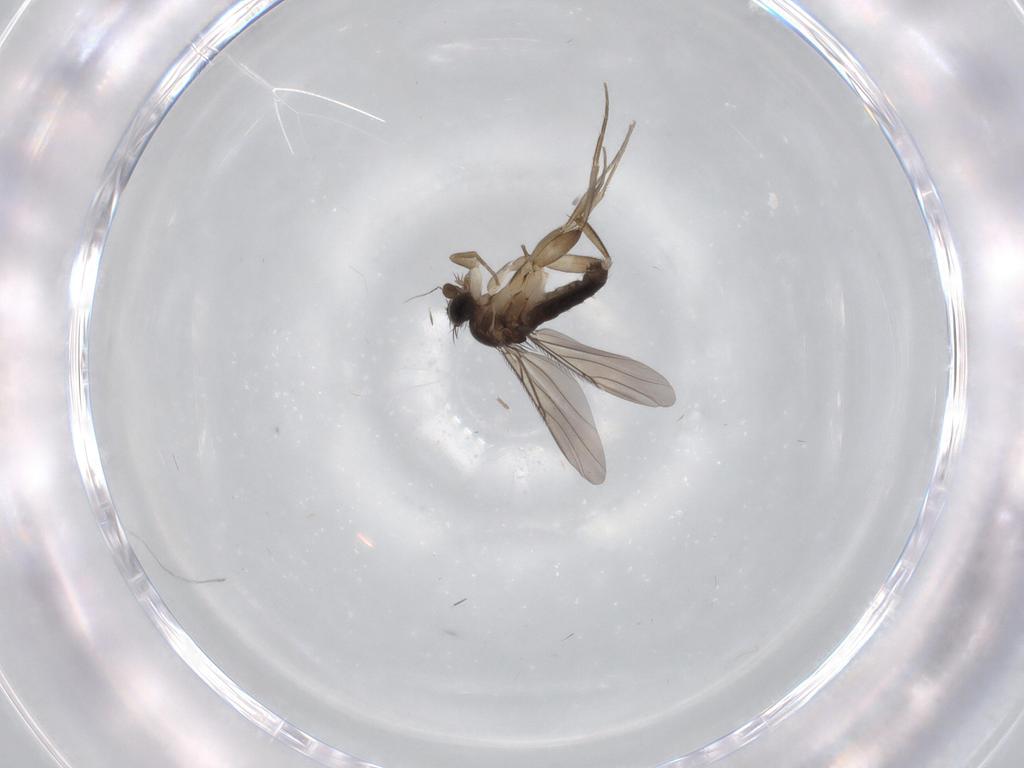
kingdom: Animalia
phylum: Arthropoda
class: Insecta
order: Diptera
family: Phoridae
